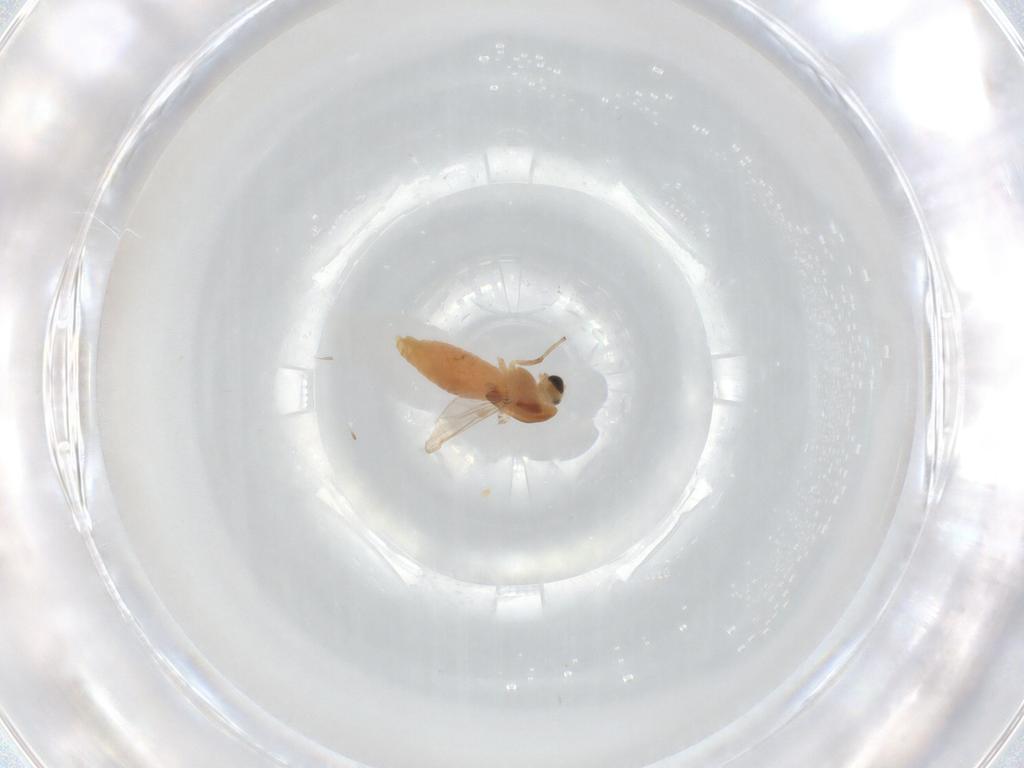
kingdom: Animalia
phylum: Arthropoda
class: Insecta
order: Diptera
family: Chironomidae
